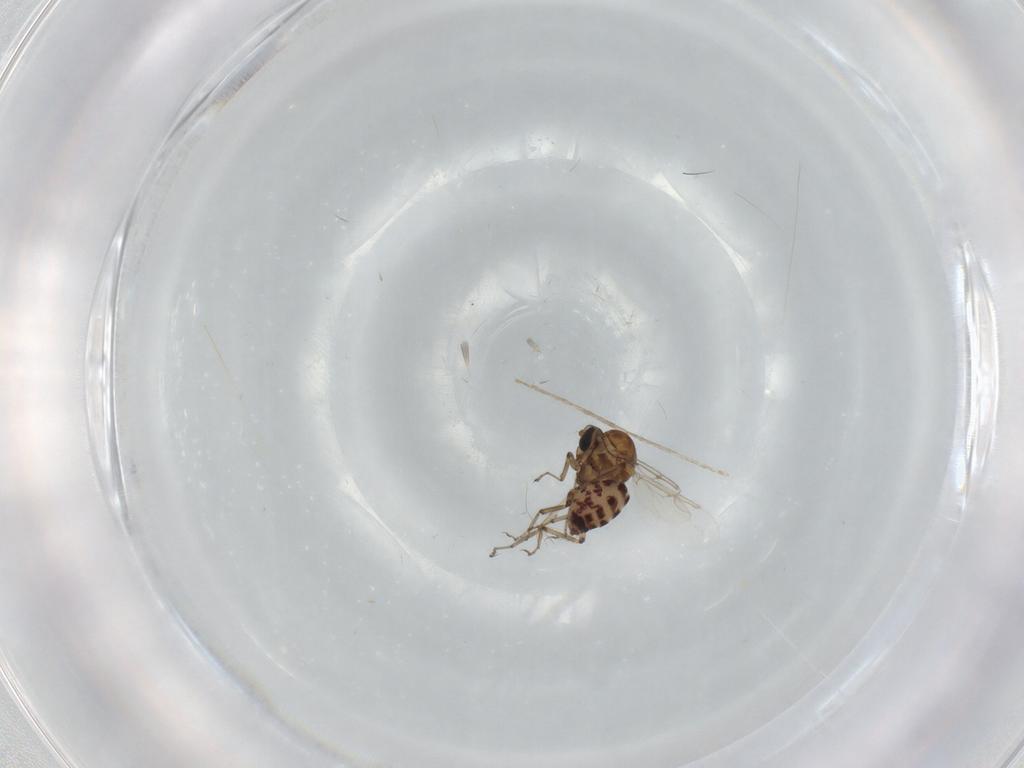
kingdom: Animalia
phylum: Arthropoda
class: Insecta
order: Diptera
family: Ceratopogonidae
